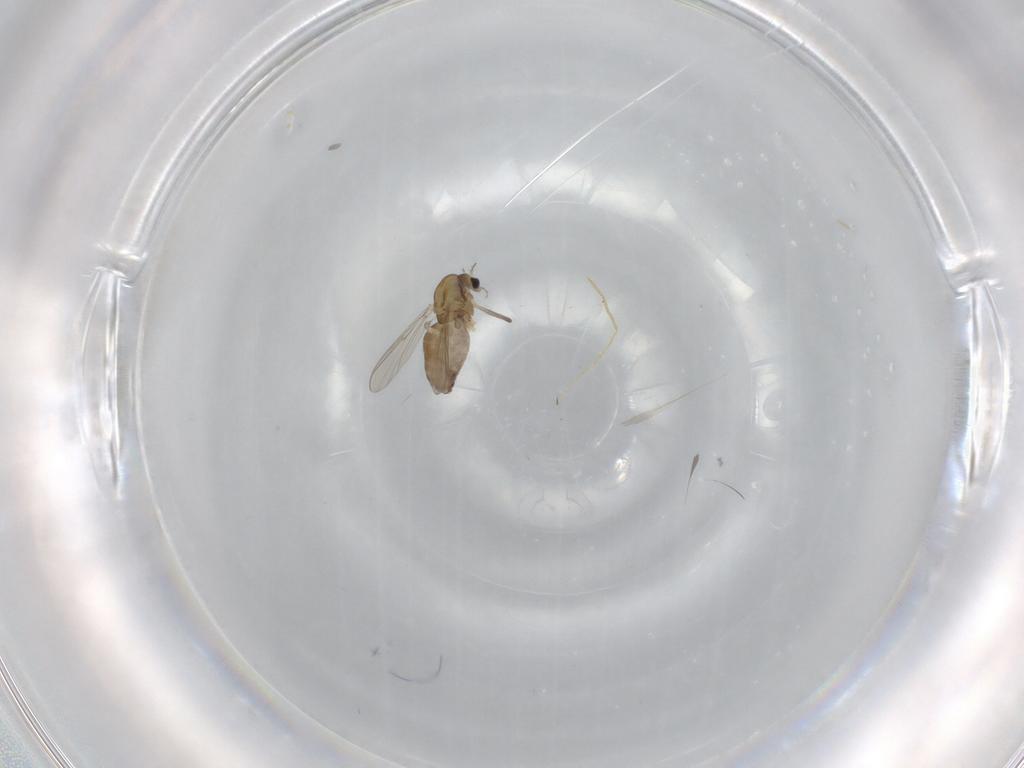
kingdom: Animalia
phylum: Arthropoda
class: Insecta
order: Diptera
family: Chironomidae
